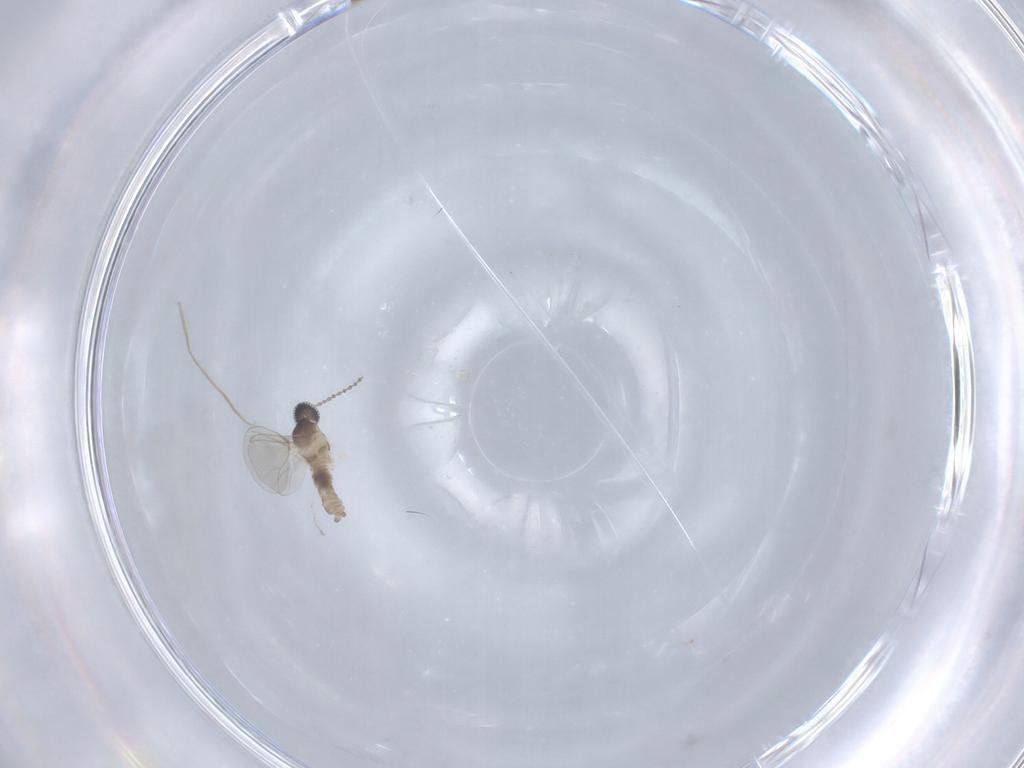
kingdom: Animalia
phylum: Arthropoda
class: Insecta
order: Diptera
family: Cecidomyiidae
